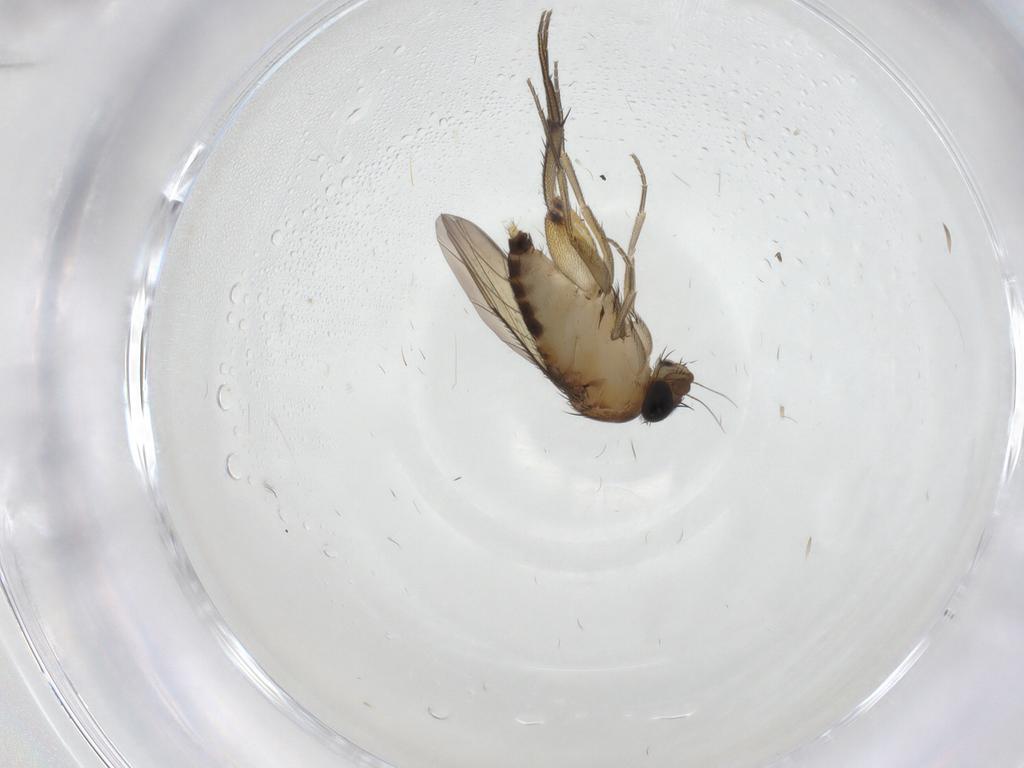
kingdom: Animalia
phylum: Arthropoda
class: Insecta
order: Diptera
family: Phoridae
